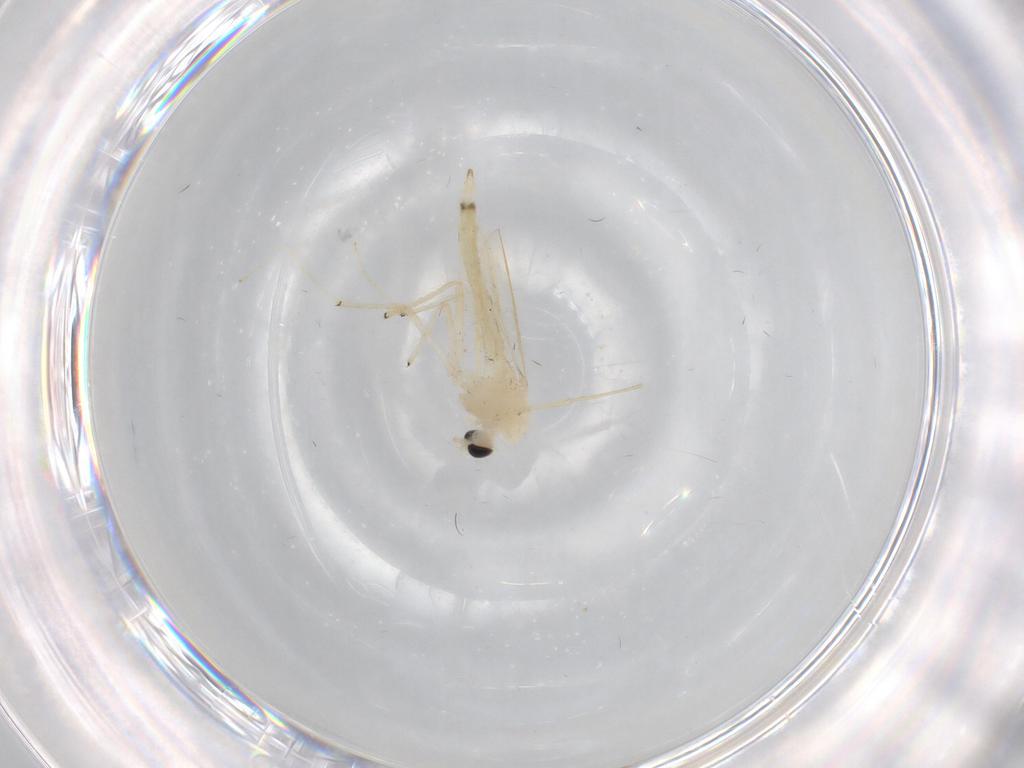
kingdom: Animalia
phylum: Arthropoda
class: Insecta
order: Diptera
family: Chironomidae
